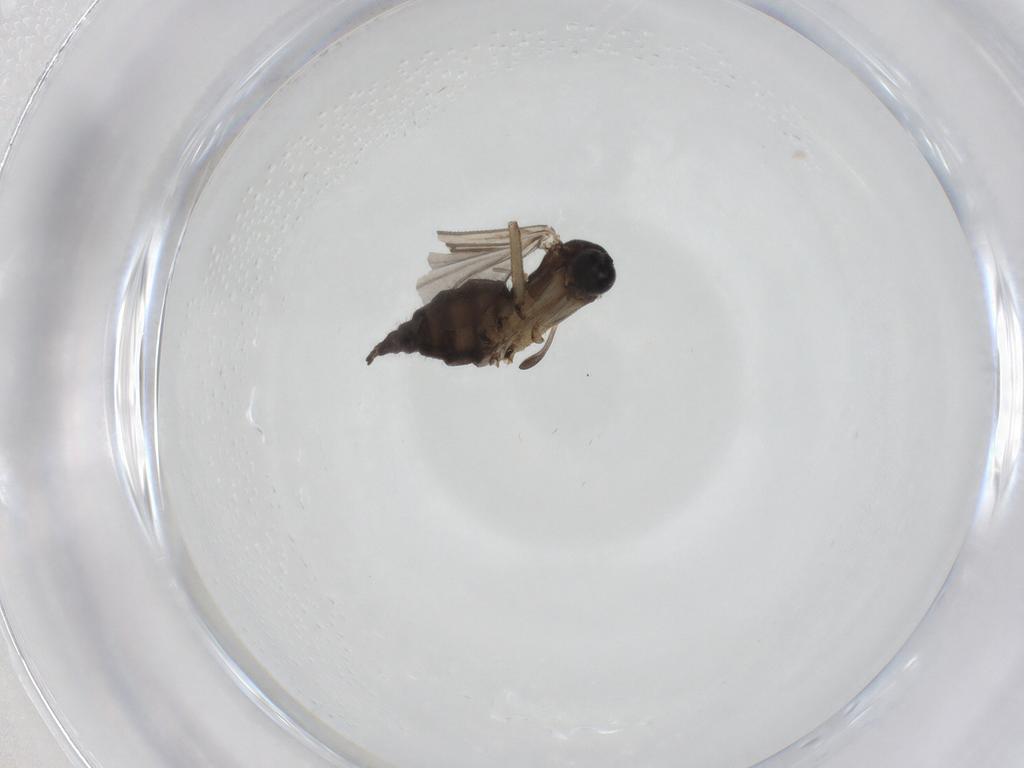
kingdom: Animalia
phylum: Arthropoda
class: Insecta
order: Diptera
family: Sciaridae
